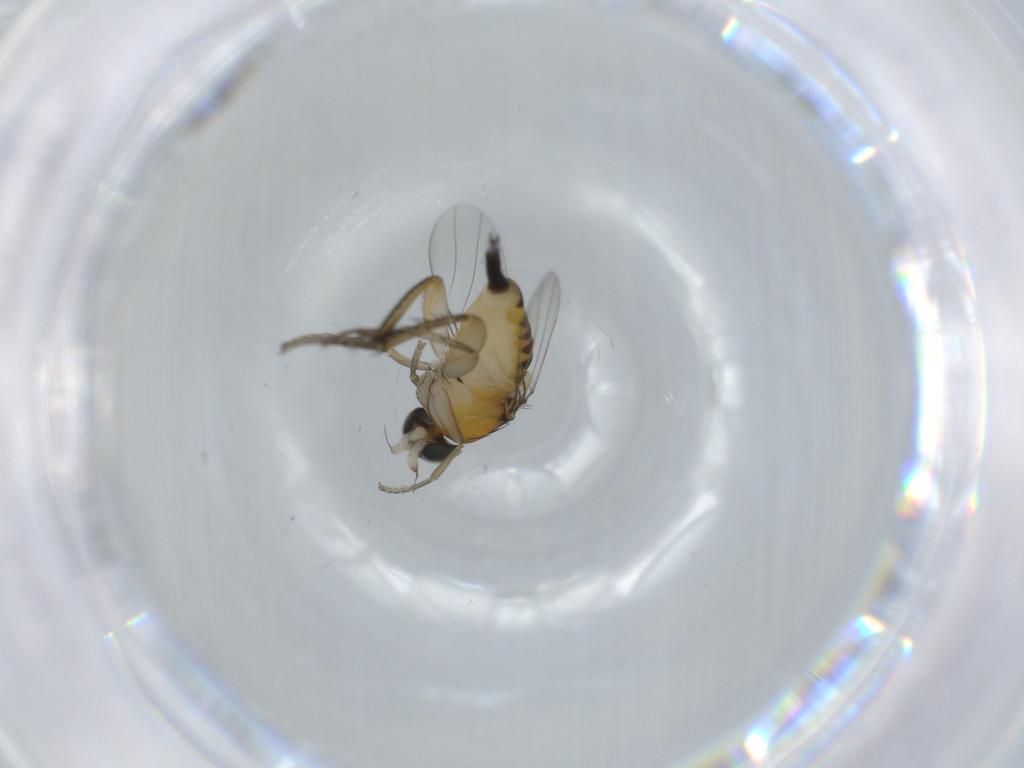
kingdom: Animalia
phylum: Arthropoda
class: Insecta
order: Diptera
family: Phoridae
